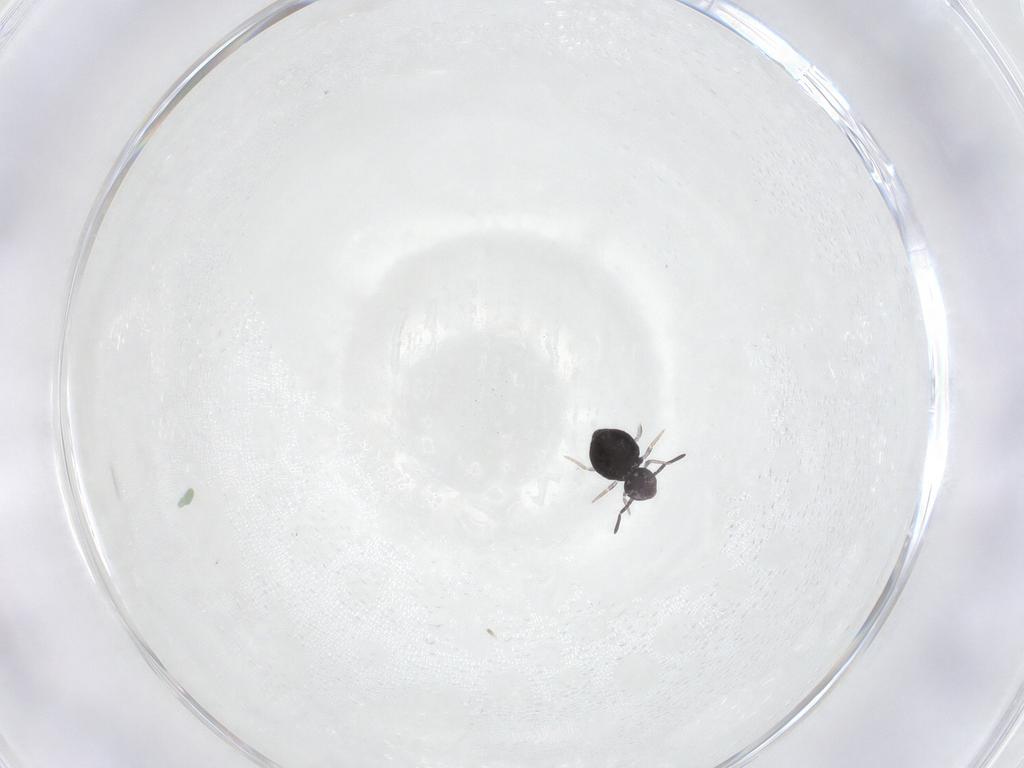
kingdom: Animalia
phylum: Arthropoda
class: Collembola
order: Symphypleona
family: Katiannidae
